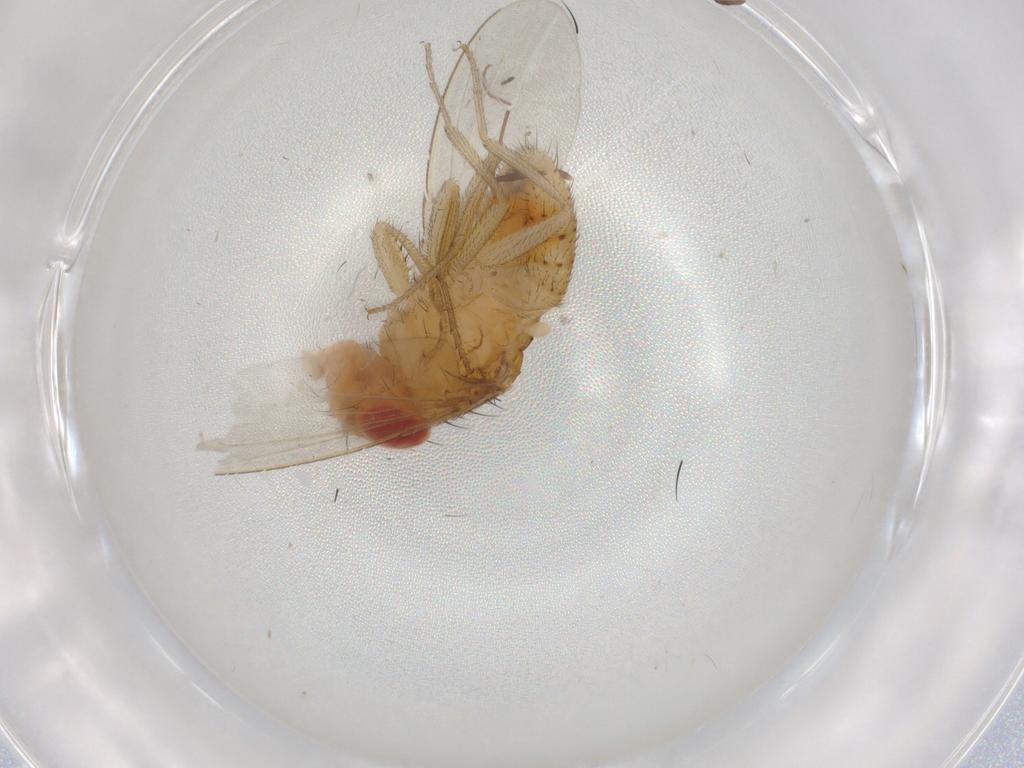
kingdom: Animalia
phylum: Arthropoda
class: Insecta
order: Diptera
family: Drosophilidae
